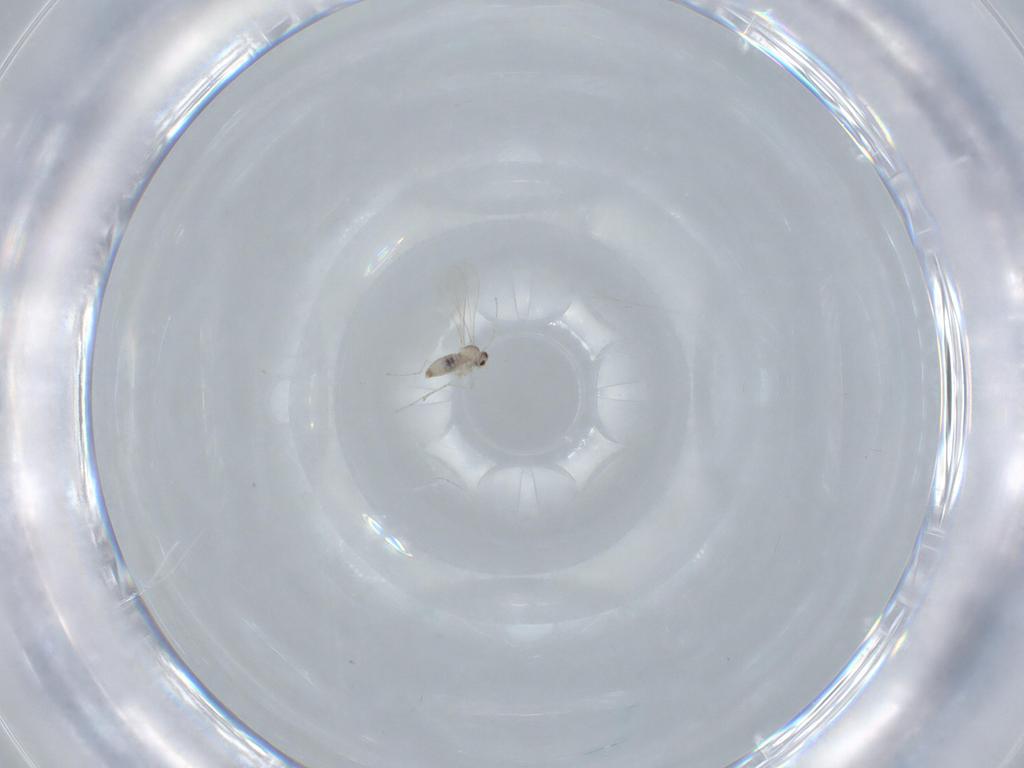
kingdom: Animalia
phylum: Arthropoda
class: Insecta
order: Diptera
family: Cecidomyiidae
